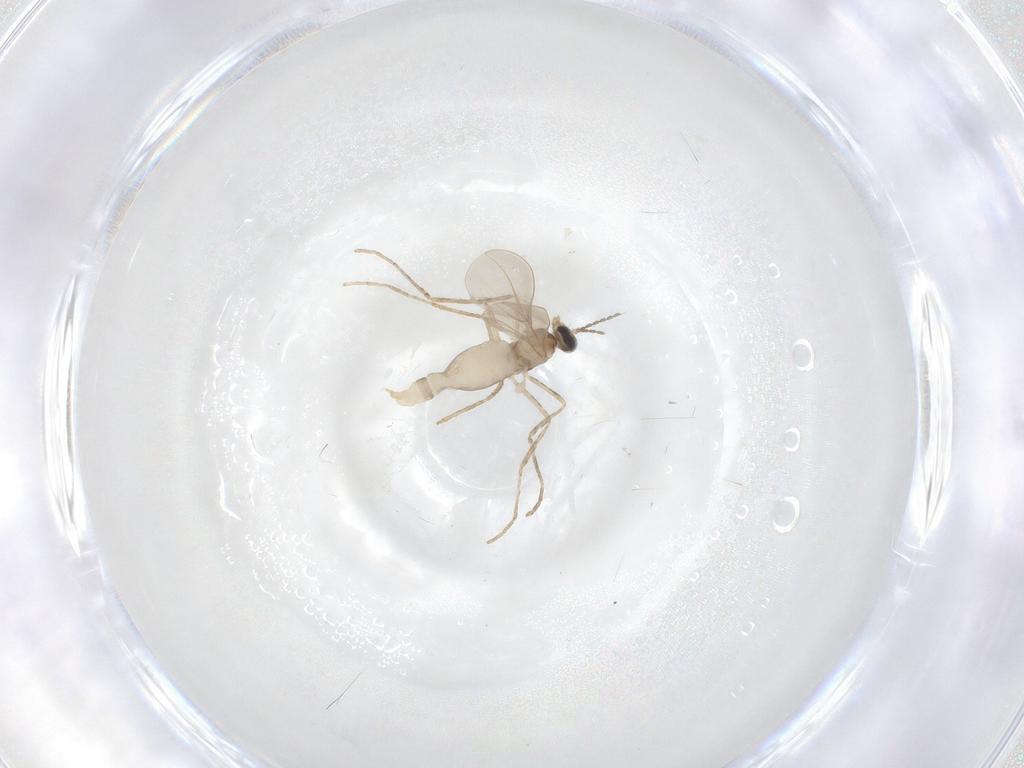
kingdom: Animalia
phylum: Arthropoda
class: Insecta
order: Diptera
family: Cecidomyiidae
